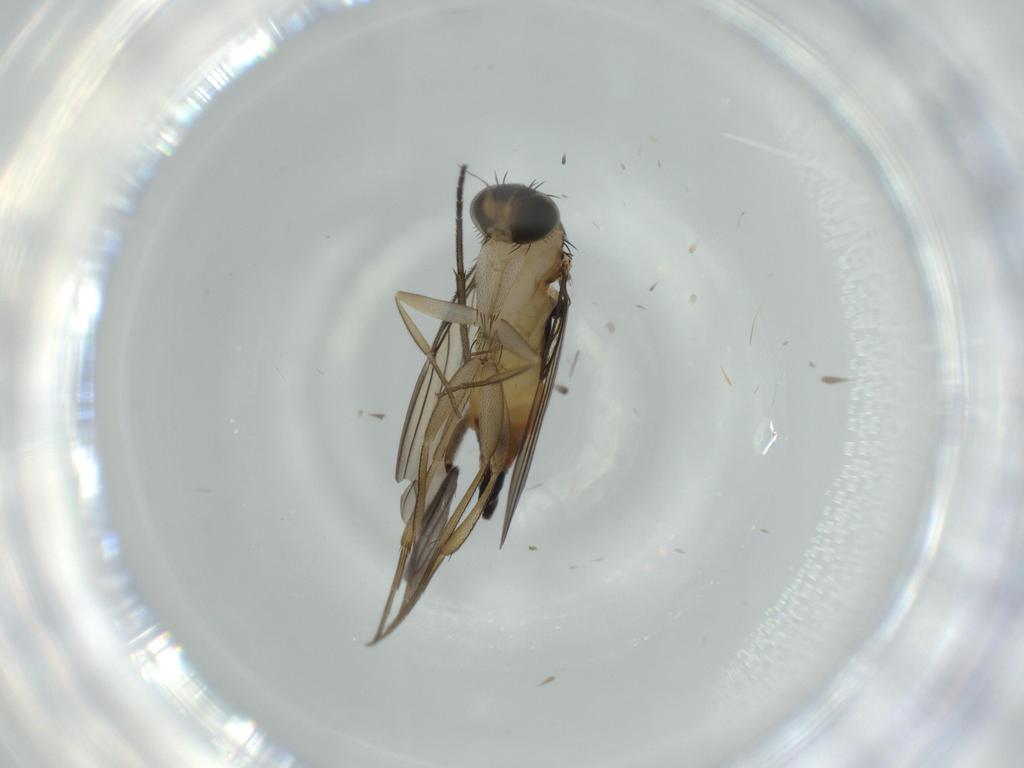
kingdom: Animalia
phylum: Arthropoda
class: Insecta
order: Diptera
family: Phoridae
